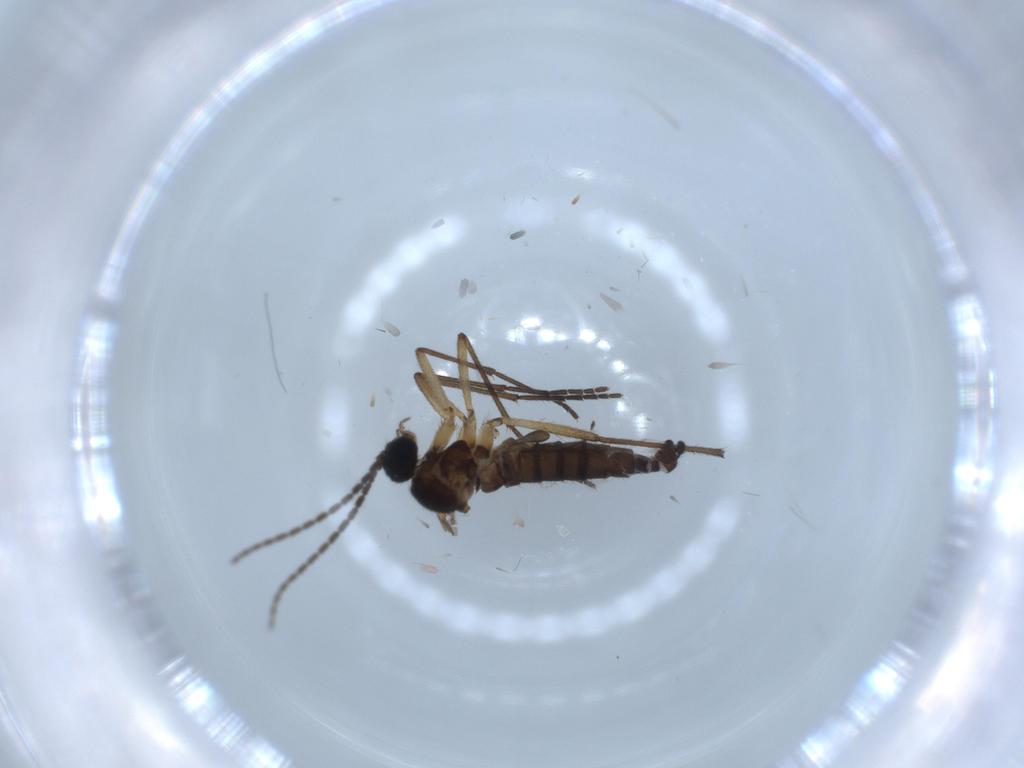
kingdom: Animalia
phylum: Arthropoda
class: Insecta
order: Diptera
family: Sciaridae
